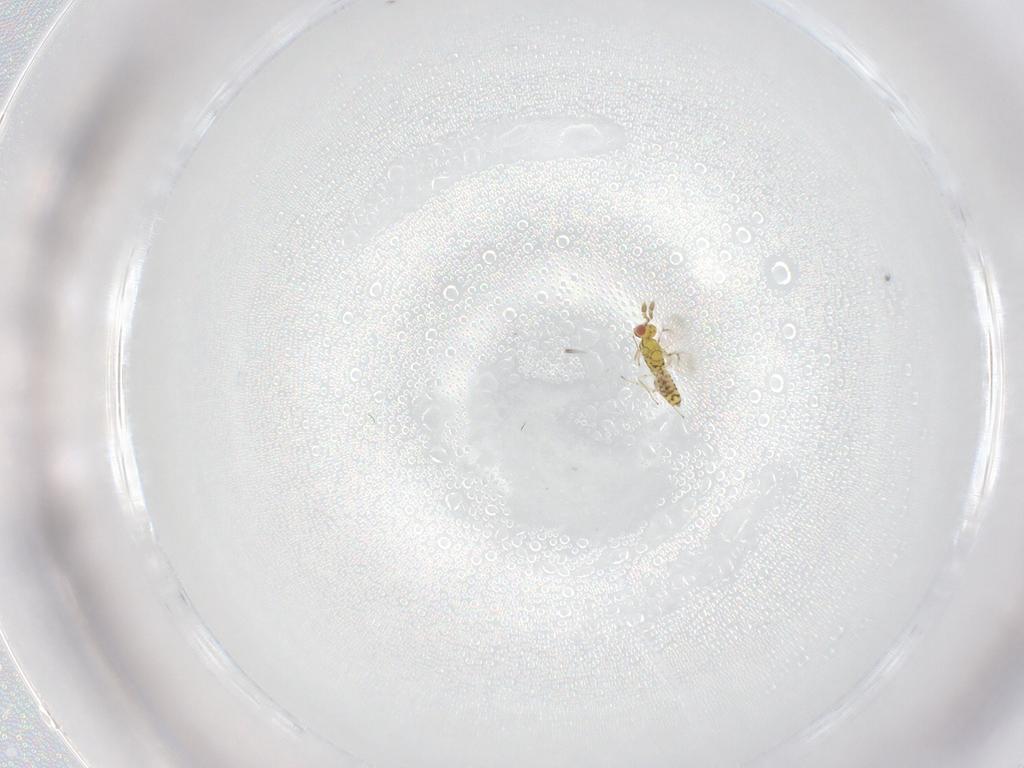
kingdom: Animalia
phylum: Arthropoda
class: Insecta
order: Hymenoptera
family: Eulophidae
